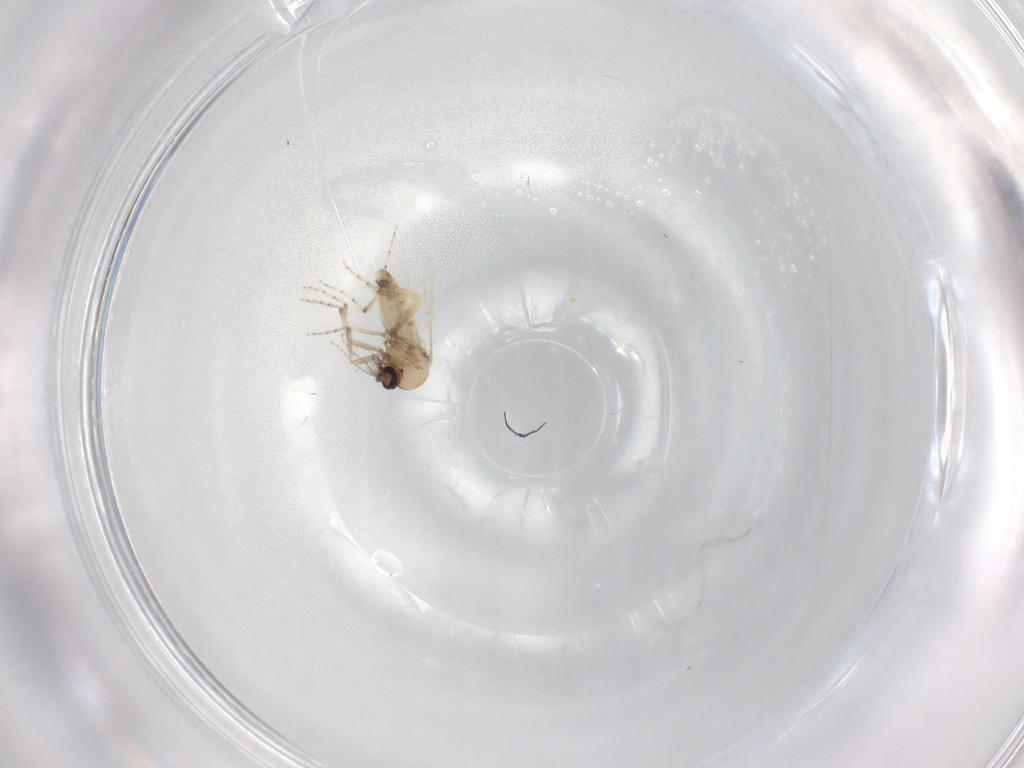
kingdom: Animalia
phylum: Arthropoda
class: Insecta
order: Diptera
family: Ceratopogonidae
